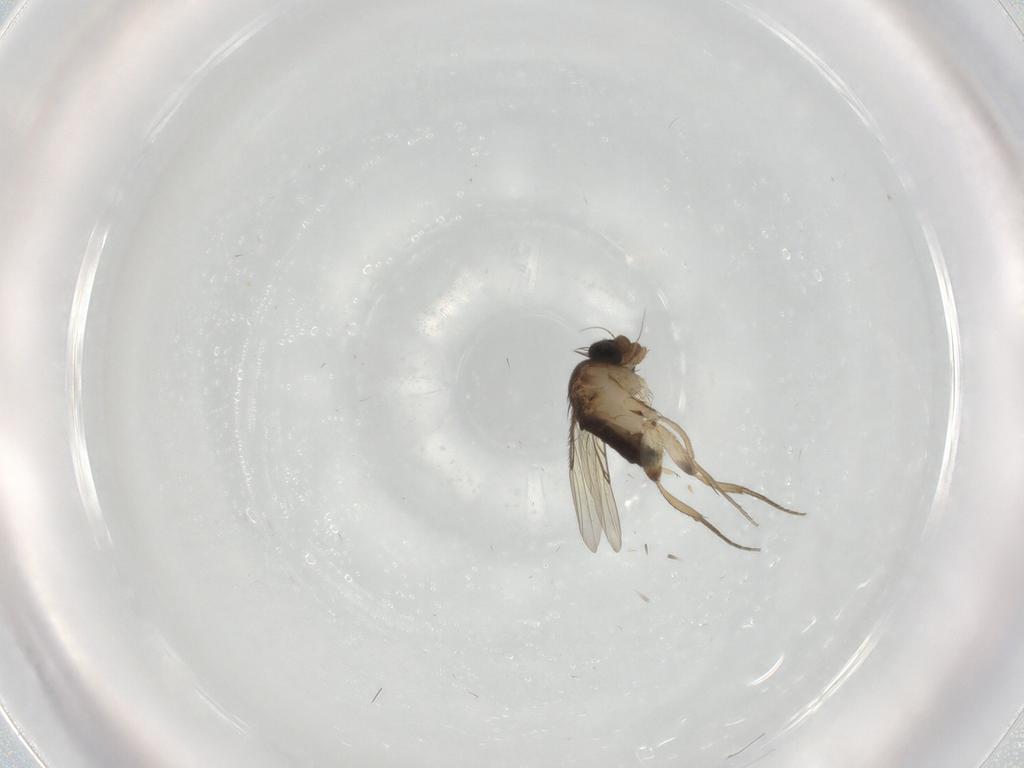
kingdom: Animalia
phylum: Arthropoda
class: Insecta
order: Diptera
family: Phoridae
